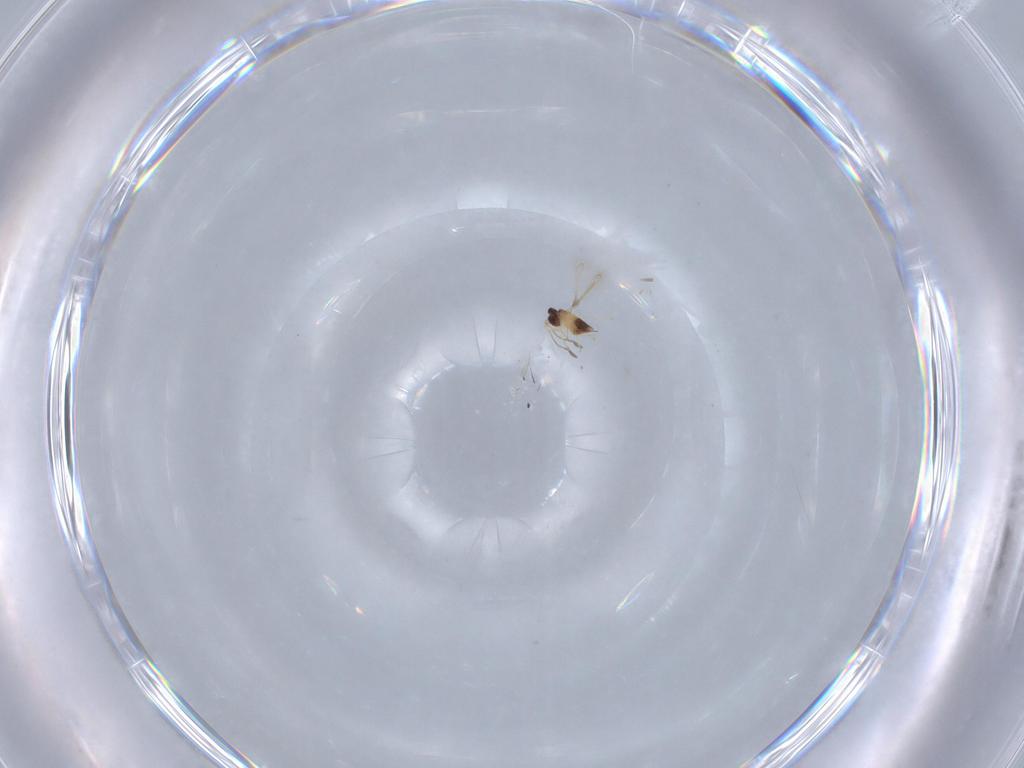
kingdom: Animalia
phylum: Arthropoda
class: Insecta
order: Hymenoptera
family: Mymaridae
